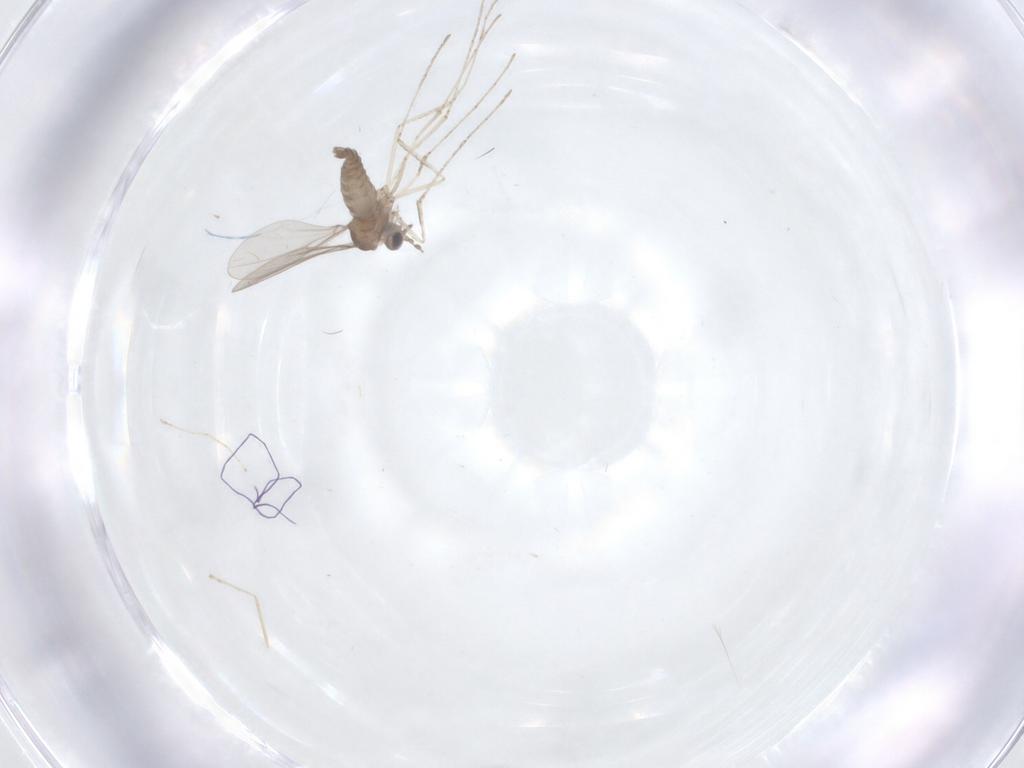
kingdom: Animalia
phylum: Arthropoda
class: Insecta
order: Diptera
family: Cecidomyiidae
